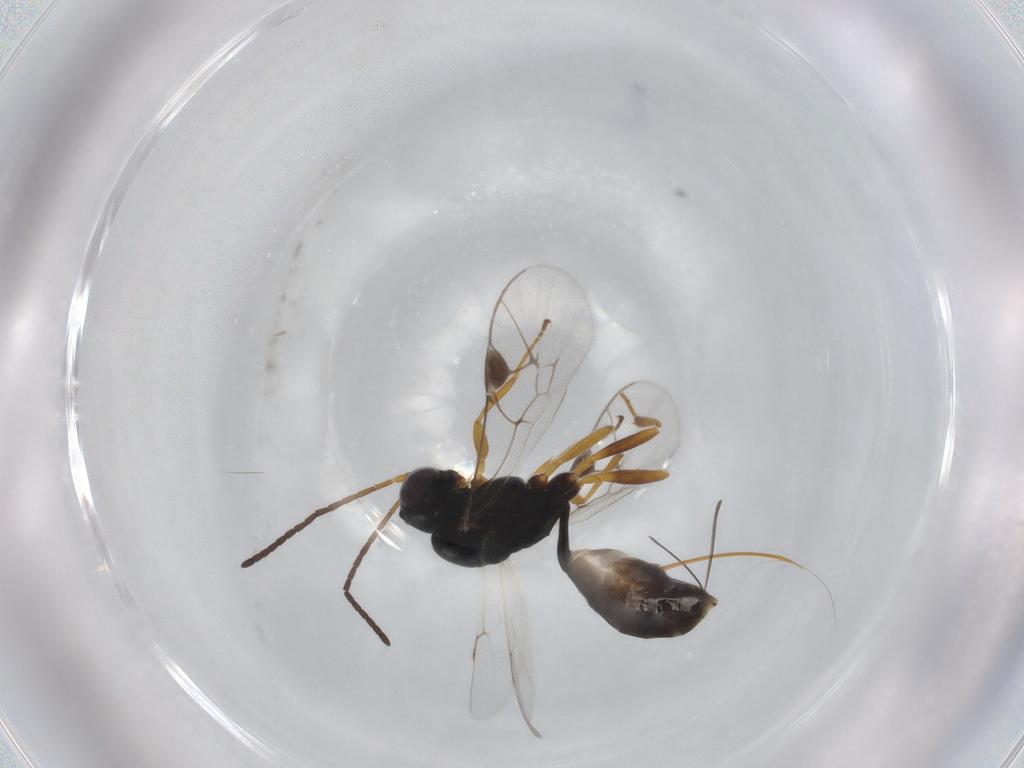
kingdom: Animalia
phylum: Arthropoda
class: Insecta
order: Hymenoptera
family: Ichneumonidae
